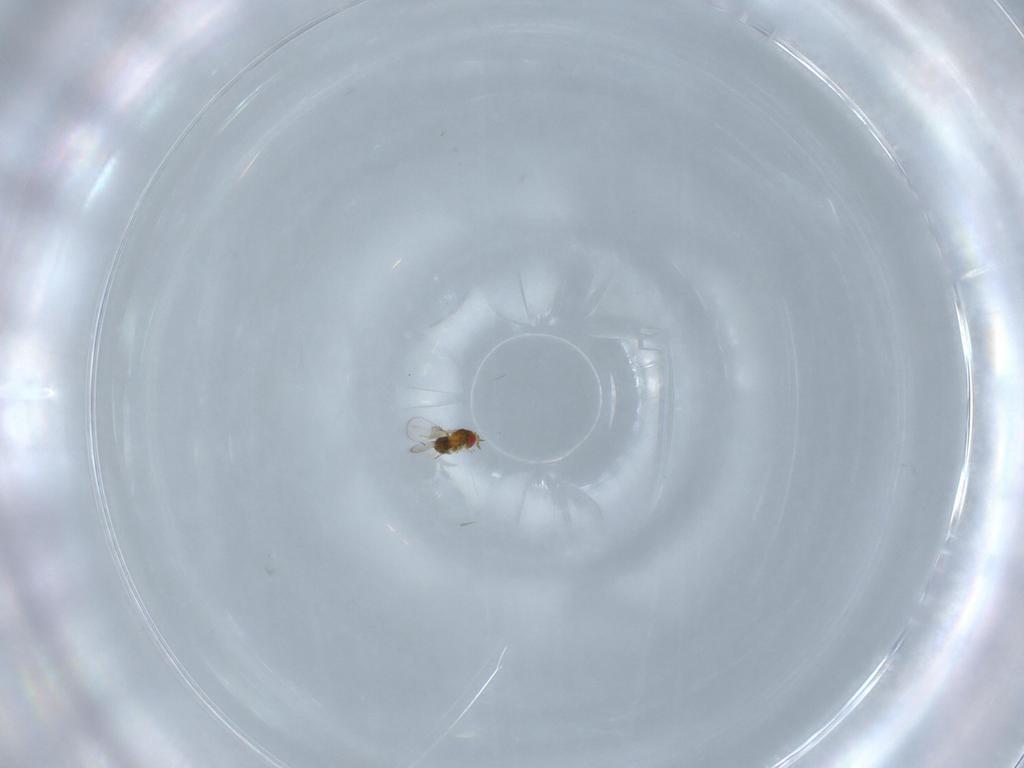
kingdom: Animalia
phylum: Arthropoda
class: Insecta
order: Hymenoptera
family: Trichogrammatidae
